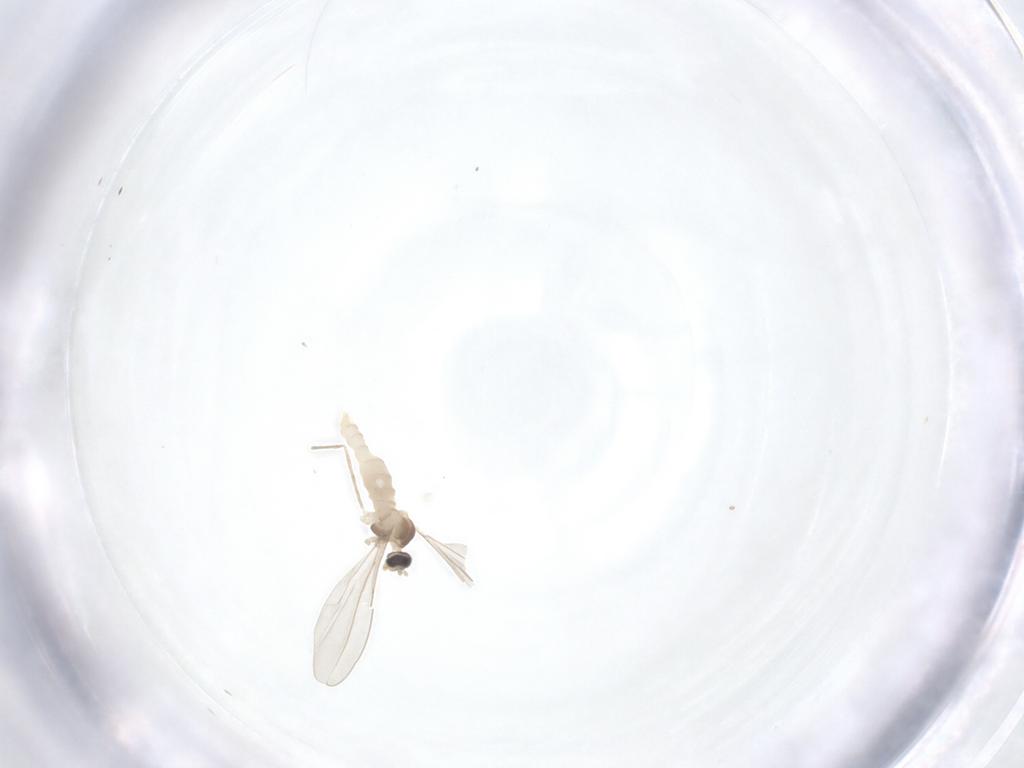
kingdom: Animalia
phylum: Arthropoda
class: Insecta
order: Diptera
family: Cecidomyiidae
